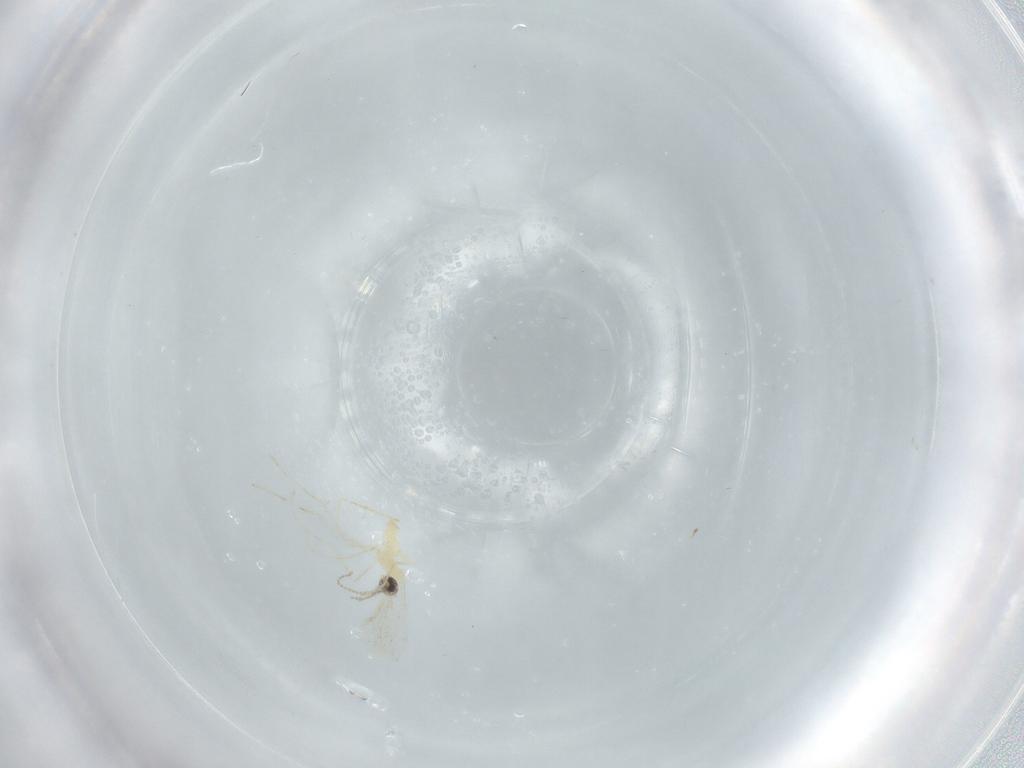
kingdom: Animalia
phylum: Arthropoda
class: Insecta
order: Diptera
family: Cecidomyiidae
